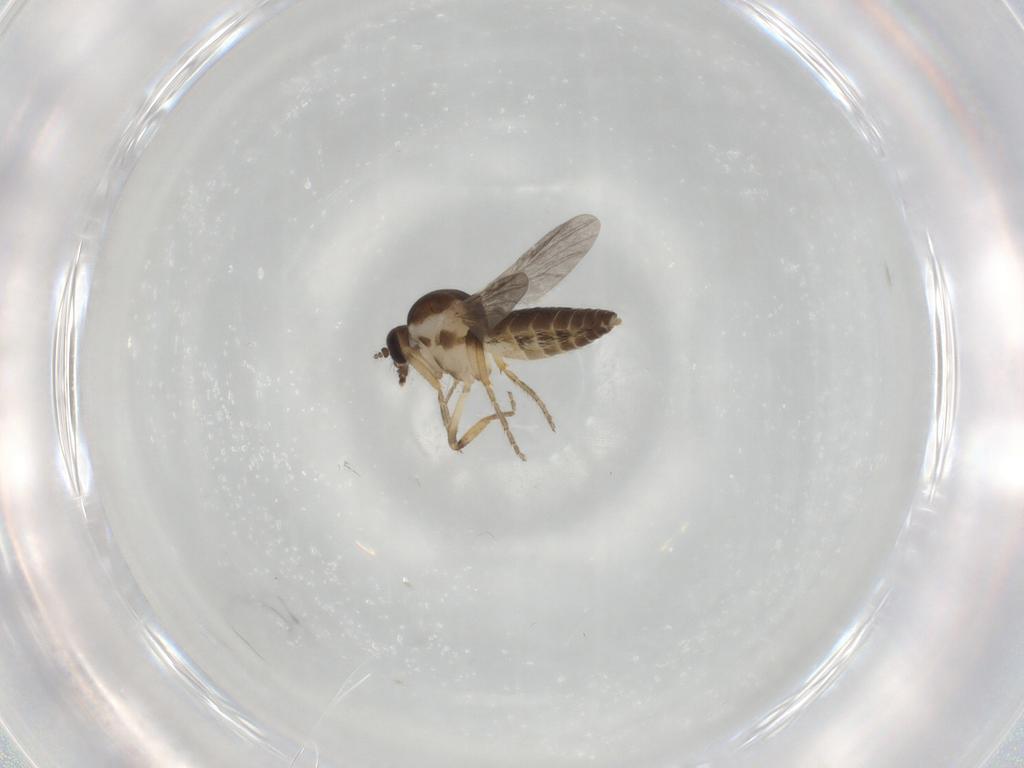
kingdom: Animalia
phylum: Arthropoda
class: Insecta
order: Diptera
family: Ceratopogonidae
